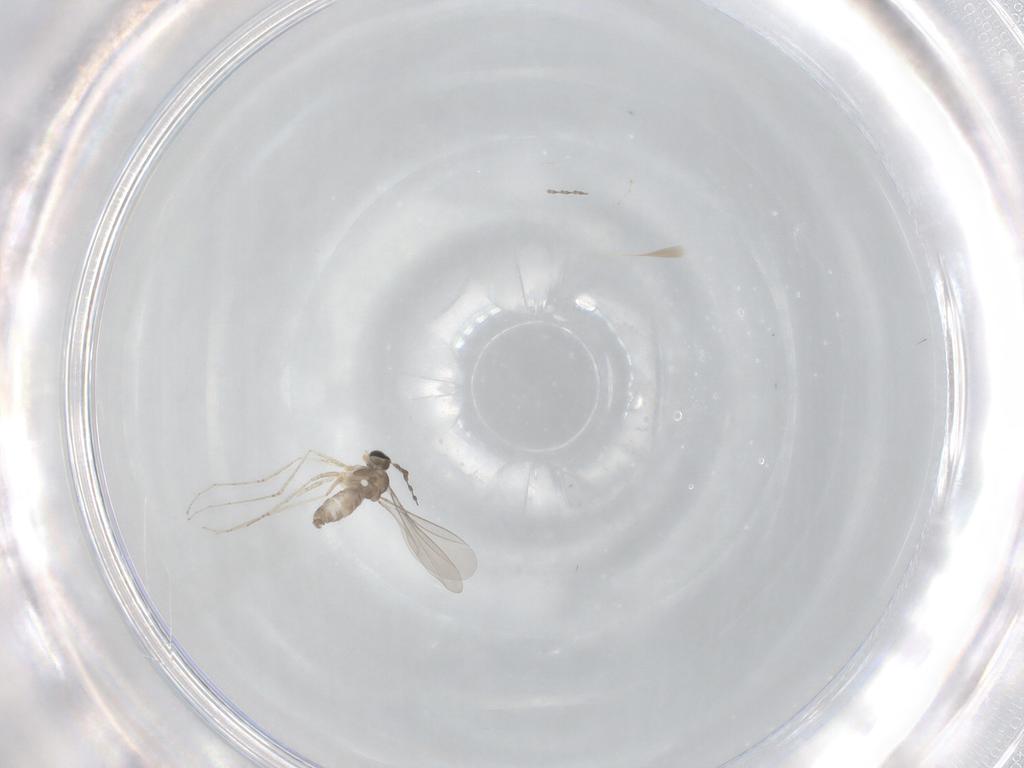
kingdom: Animalia
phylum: Arthropoda
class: Insecta
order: Diptera
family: Cecidomyiidae
